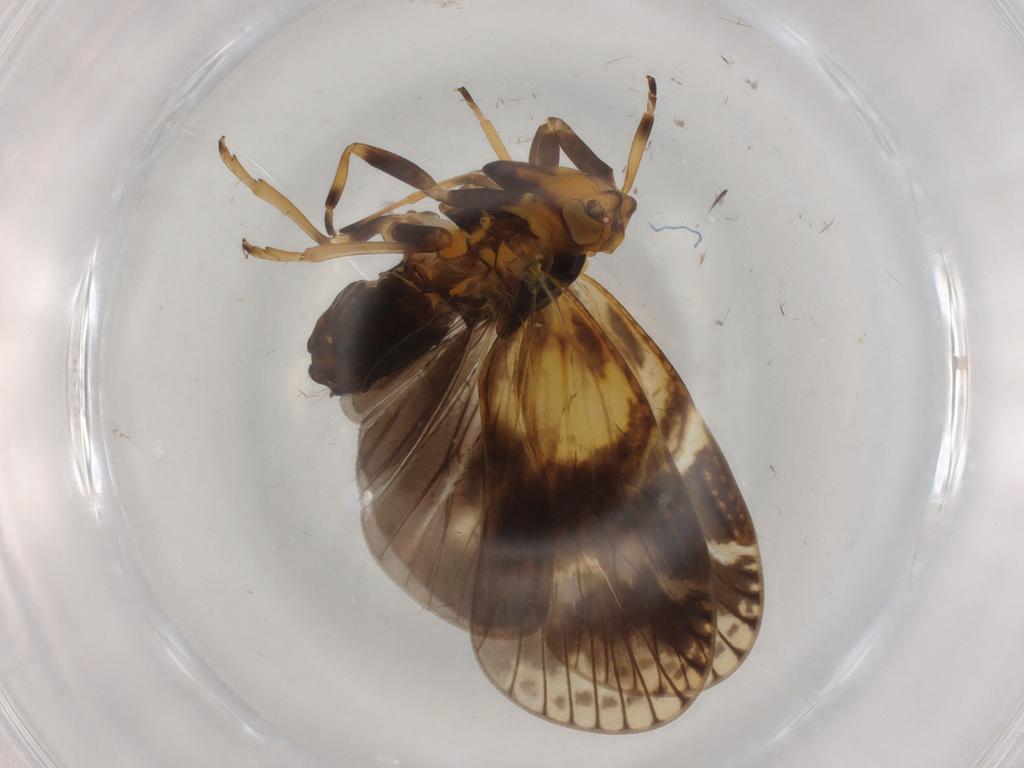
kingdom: Animalia
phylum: Arthropoda
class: Insecta
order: Hemiptera
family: Cixiidae
